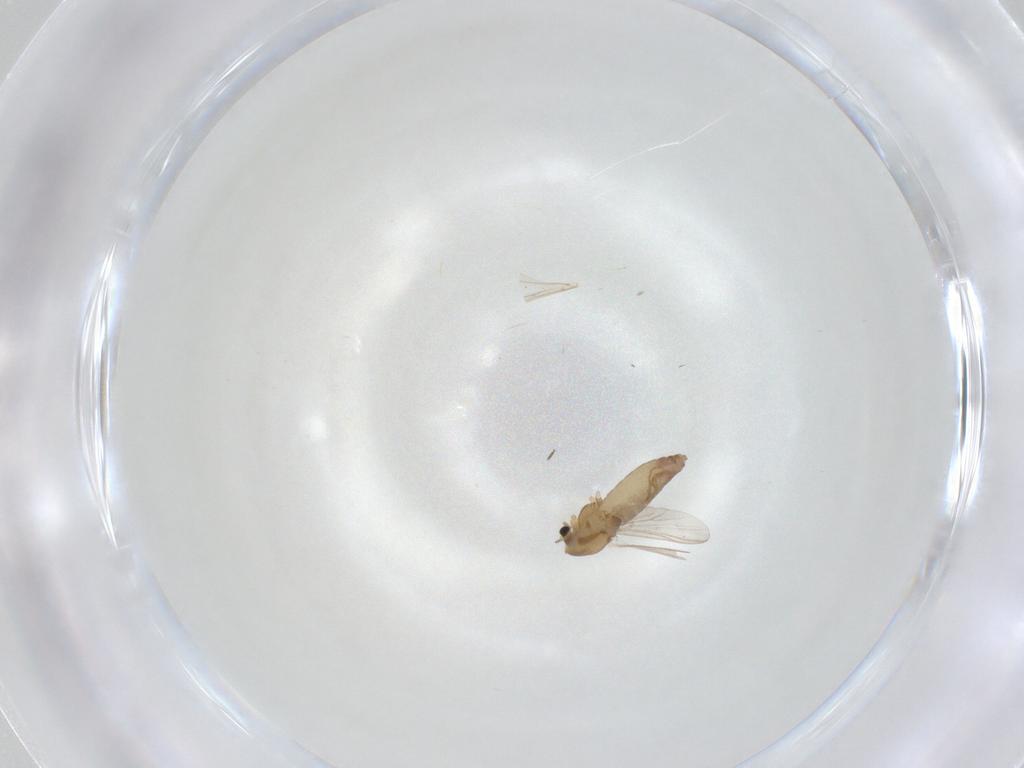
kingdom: Animalia
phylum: Arthropoda
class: Insecta
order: Diptera
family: Chironomidae
